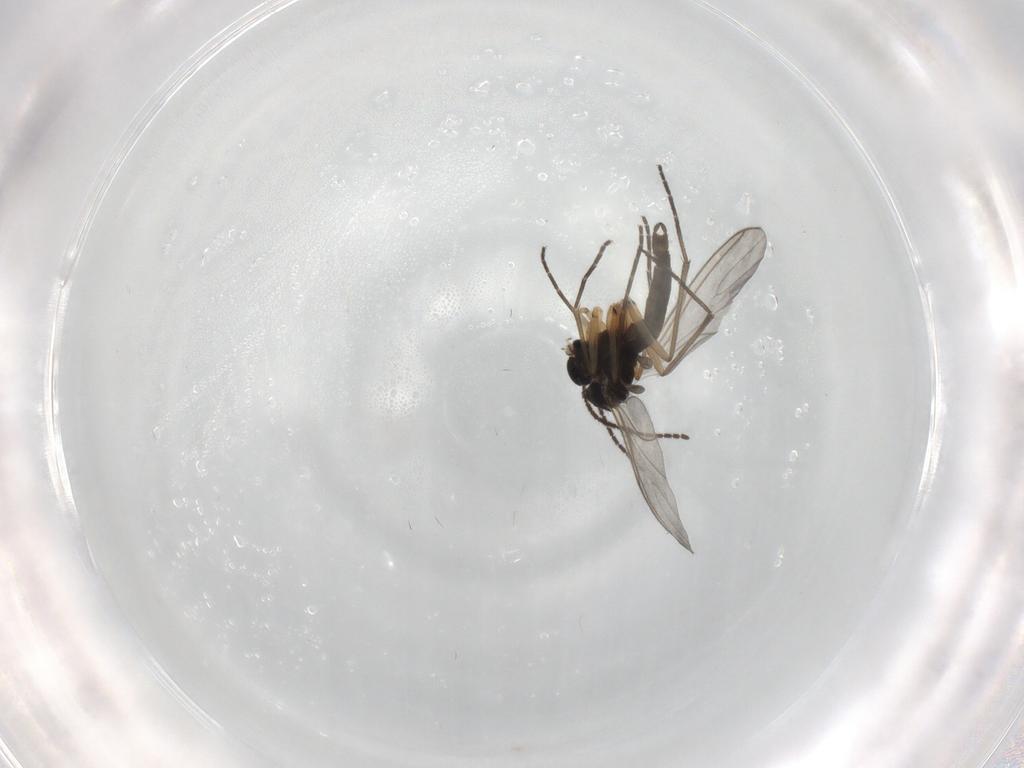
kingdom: Animalia
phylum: Arthropoda
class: Insecta
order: Diptera
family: Sciaridae
